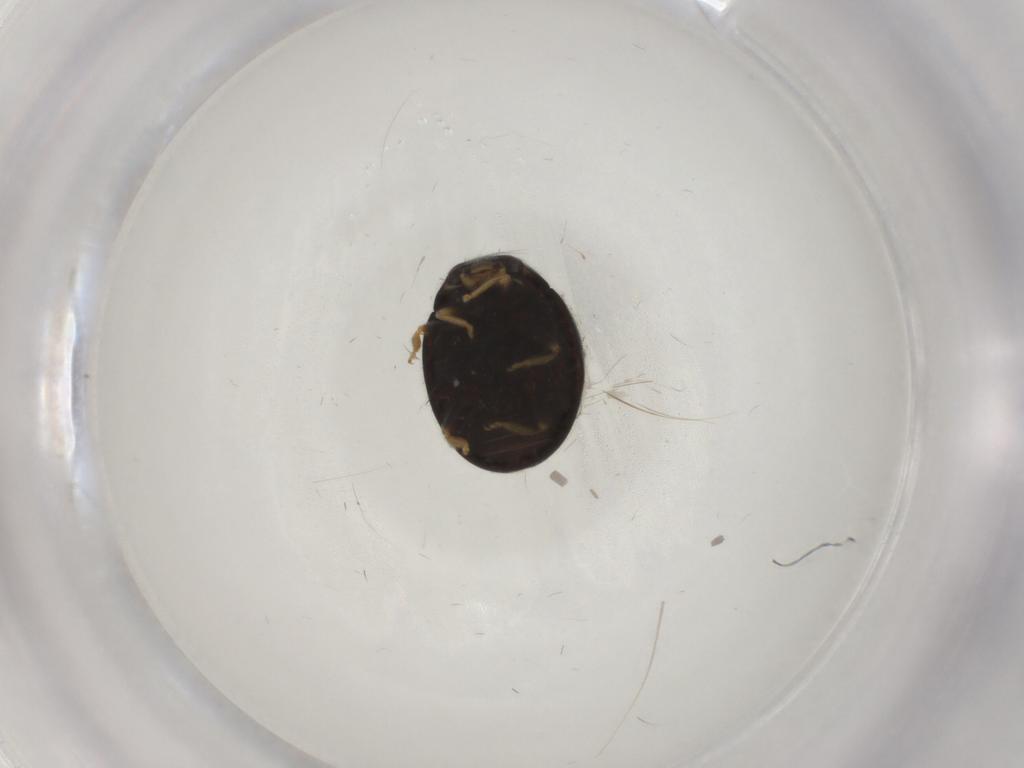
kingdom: Animalia
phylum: Arthropoda
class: Insecta
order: Coleoptera
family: Coccinellidae
